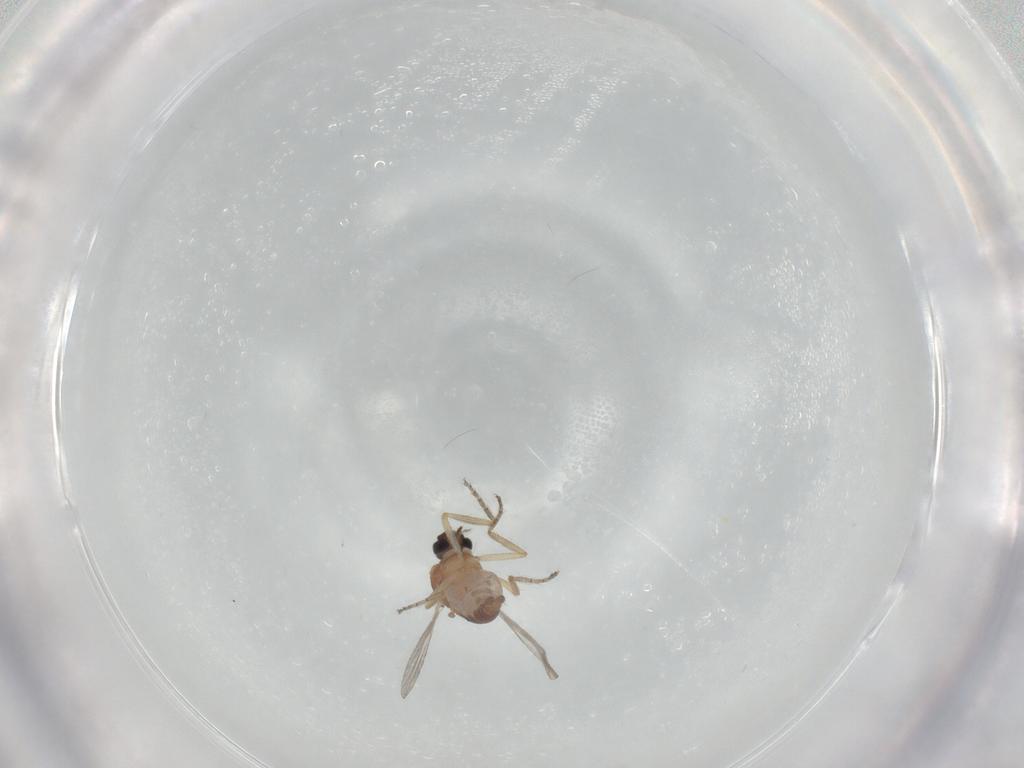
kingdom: Animalia
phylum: Arthropoda
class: Insecta
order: Diptera
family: Ceratopogonidae
